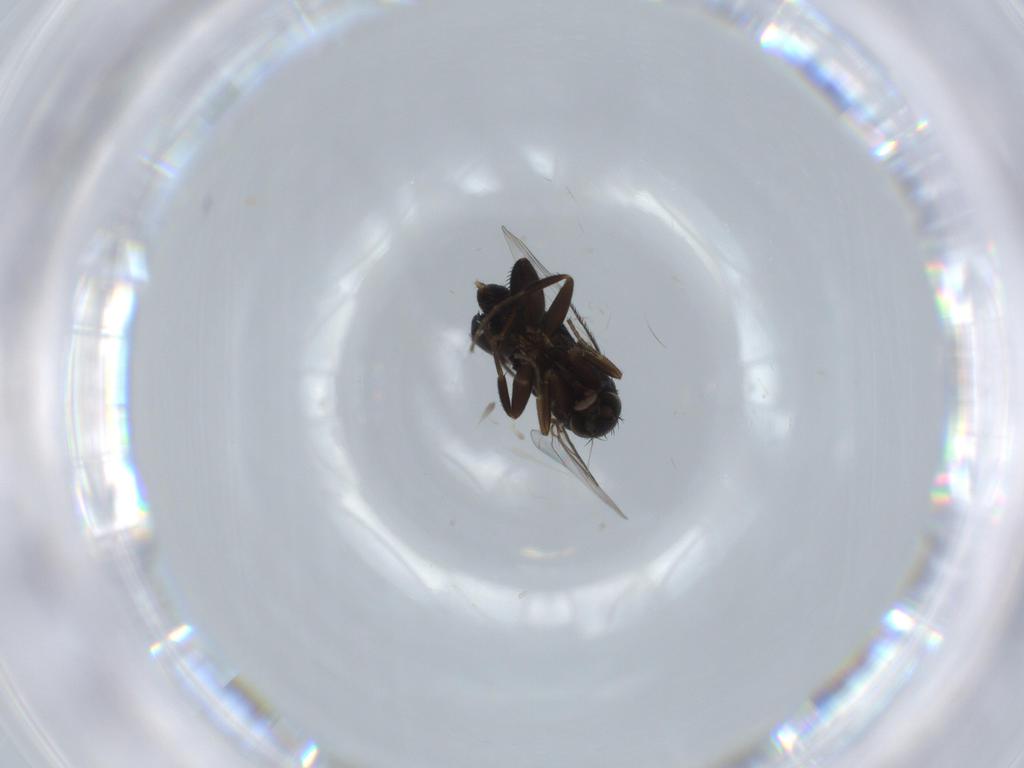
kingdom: Animalia
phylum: Arthropoda
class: Insecta
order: Diptera
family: Phoridae
